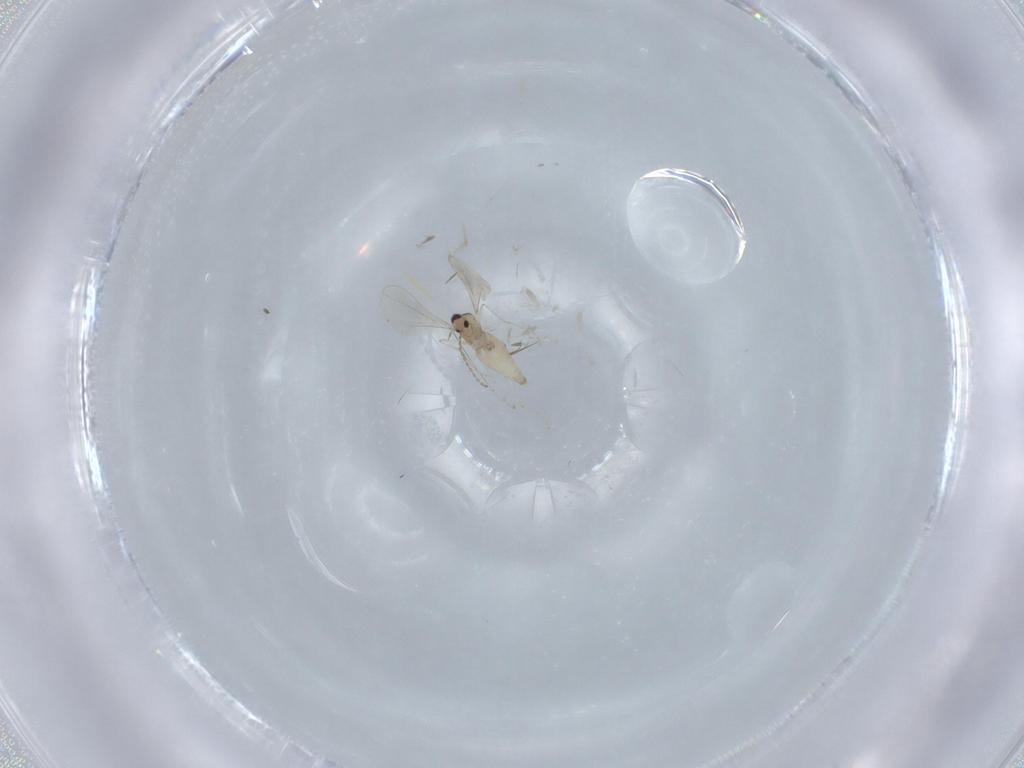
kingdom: Animalia
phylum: Arthropoda
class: Insecta
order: Diptera
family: Cecidomyiidae
